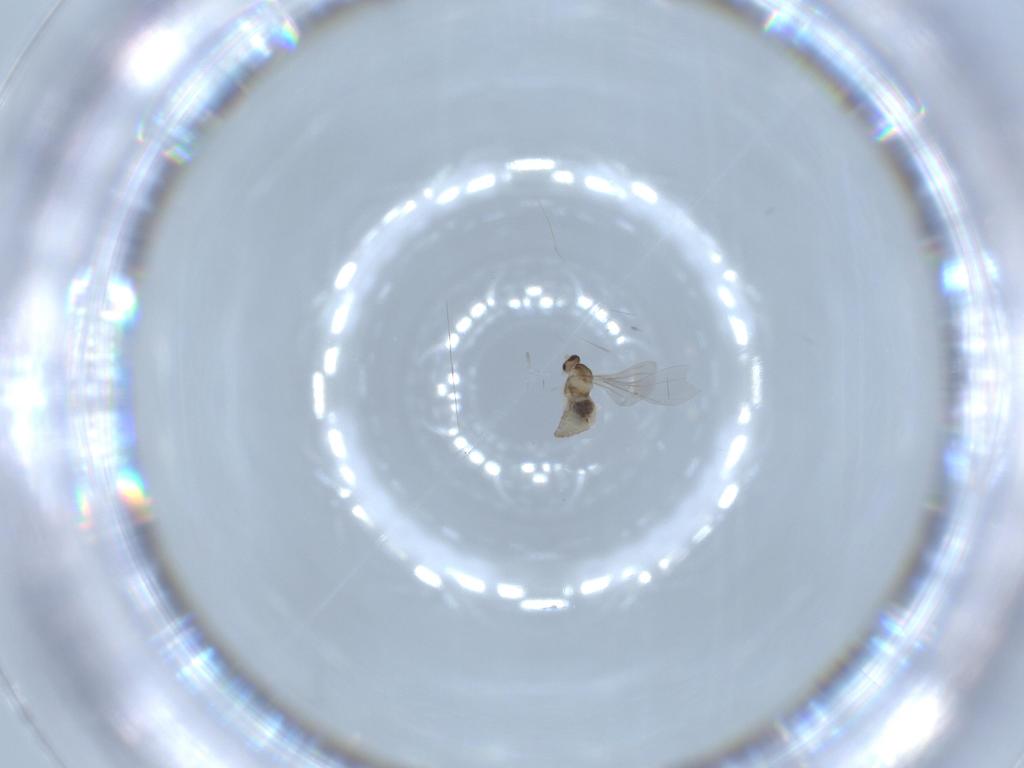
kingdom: Animalia
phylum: Arthropoda
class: Insecta
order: Diptera
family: Cecidomyiidae
